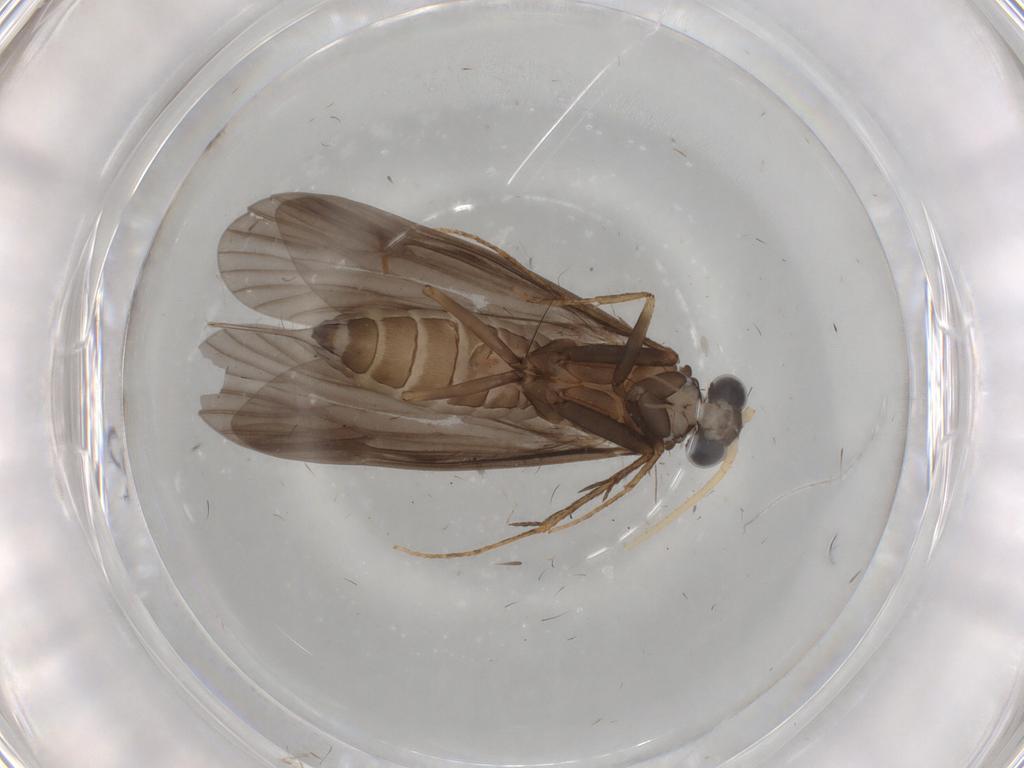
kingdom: Animalia
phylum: Arthropoda
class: Insecta
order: Trichoptera
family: Ecnomidae
